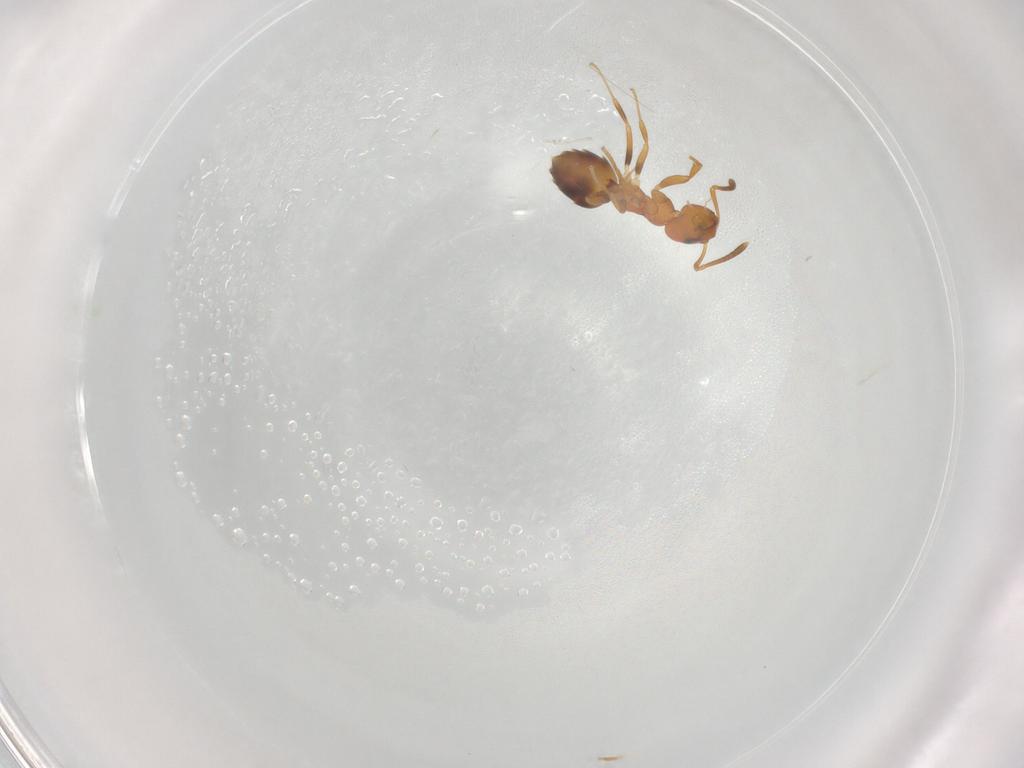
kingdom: Animalia
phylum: Arthropoda
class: Insecta
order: Hymenoptera
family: Formicidae
